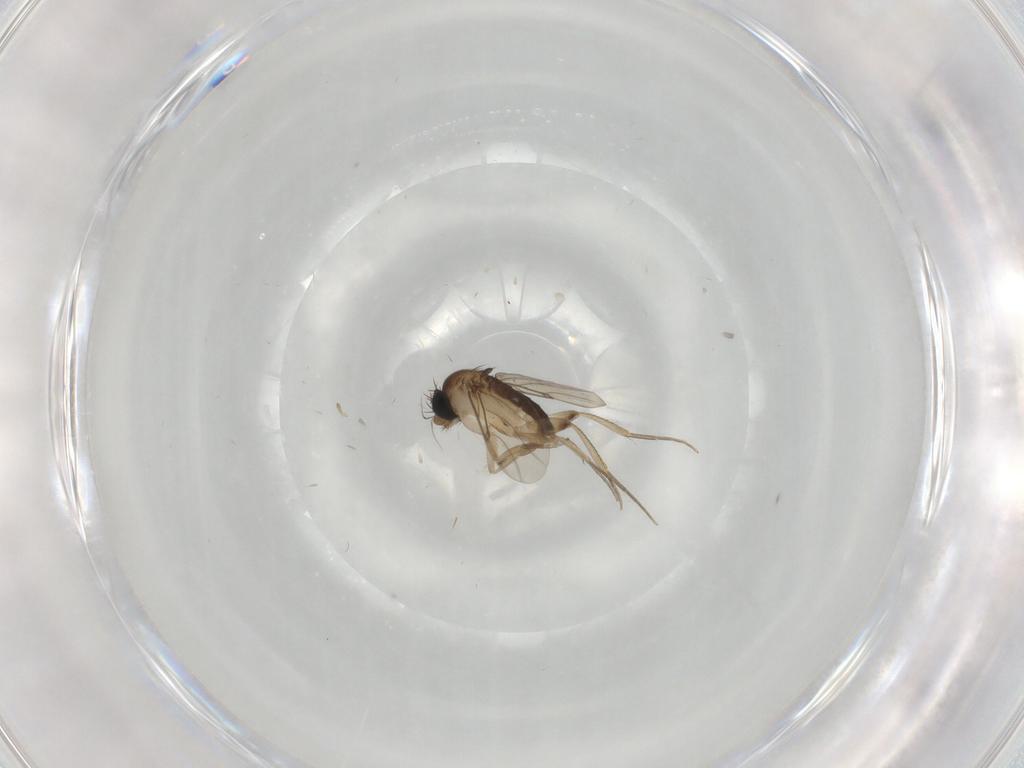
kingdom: Animalia
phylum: Arthropoda
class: Insecta
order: Diptera
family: Phoridae
